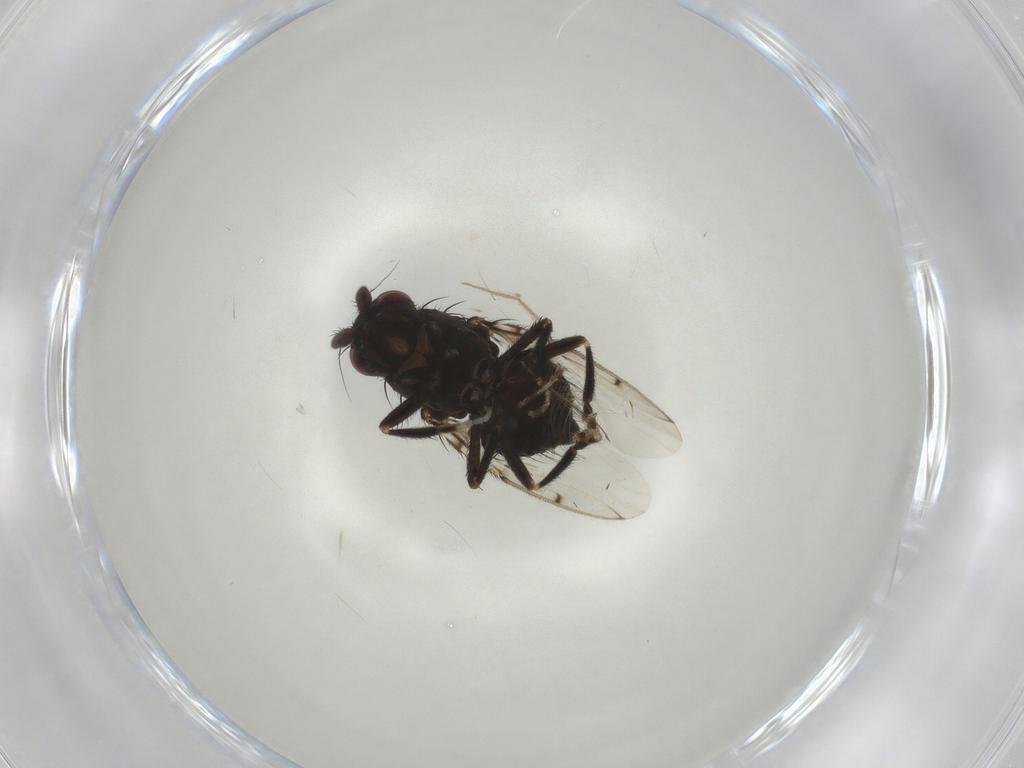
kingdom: Animalia
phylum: Arthropoda
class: Insecta
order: Diptera
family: Sphaeroceridae
